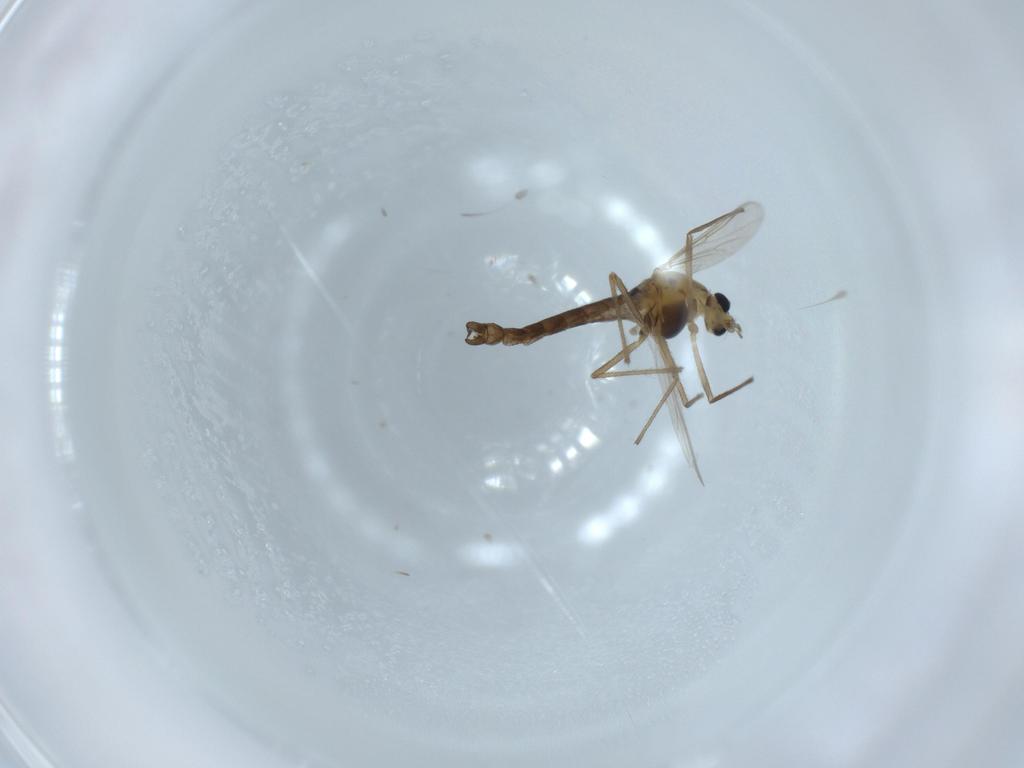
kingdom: Animalia
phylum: Arthropoda
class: Insecta
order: Diptera
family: Chironomidae
